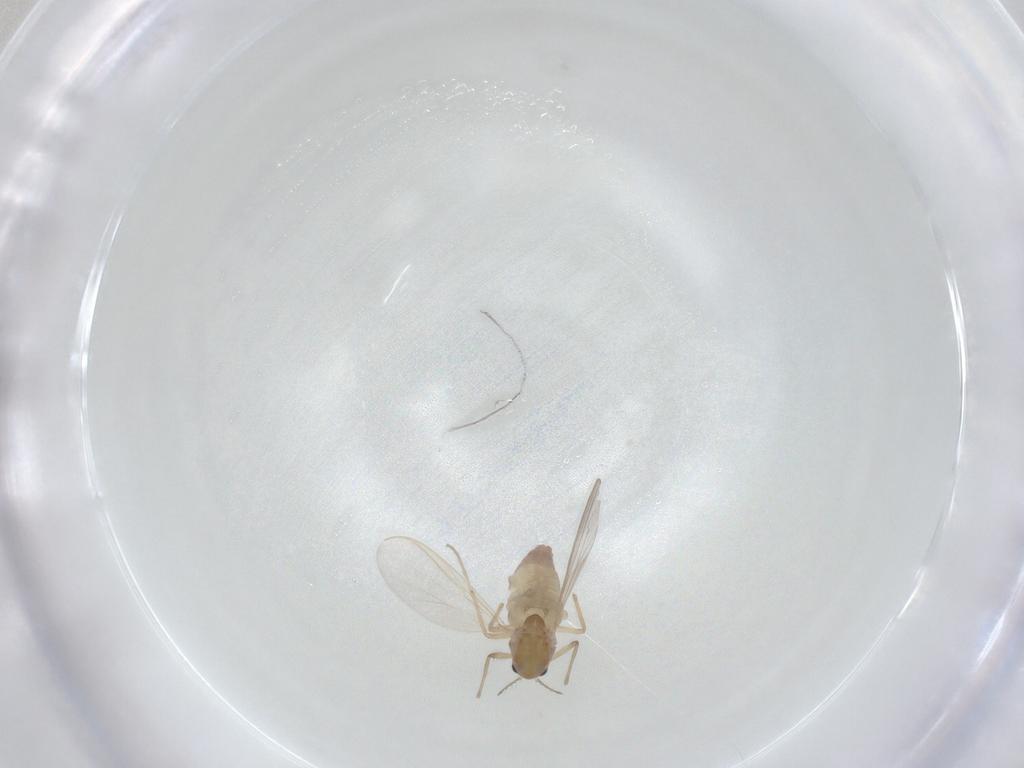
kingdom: Animalia
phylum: Arthropoda
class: Insecta
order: Diptera
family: Chironomidae
